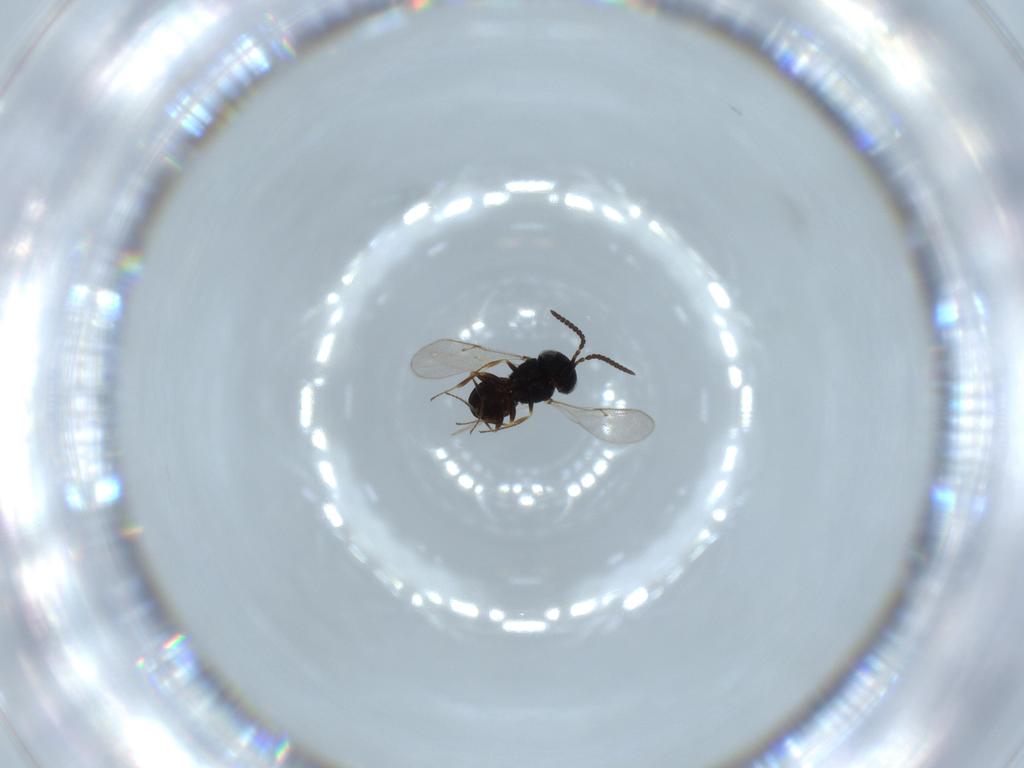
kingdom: Animalia
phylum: Arthropoda
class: Insecta
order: Hymenoptera
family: Scelionidae
